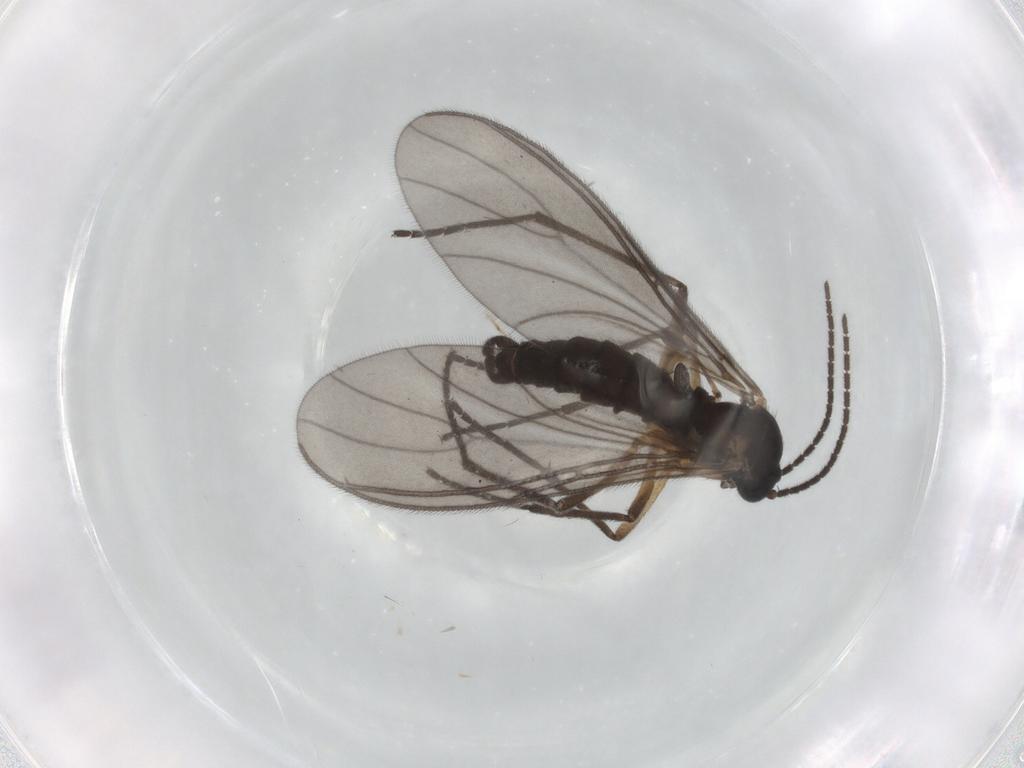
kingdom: Animalia
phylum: Arthropoda
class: Insecta
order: Diptera
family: Sciaridae
